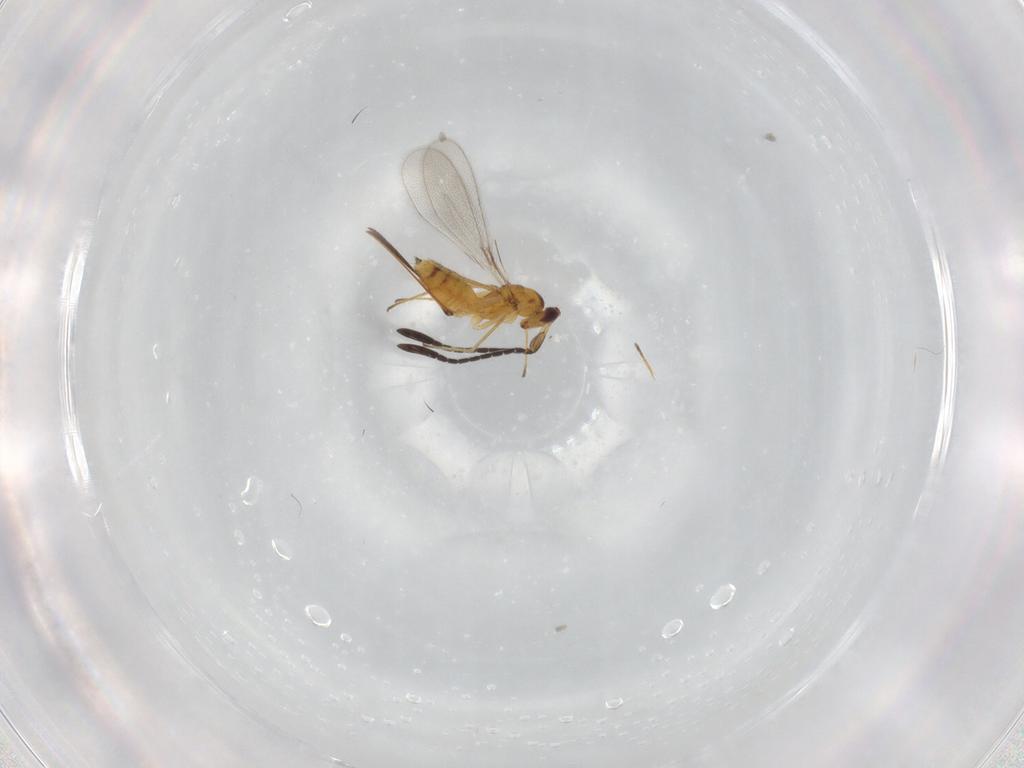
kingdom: Animalia
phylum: Arthropoda
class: Insecta
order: Hymenoptera
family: Mymaridae
